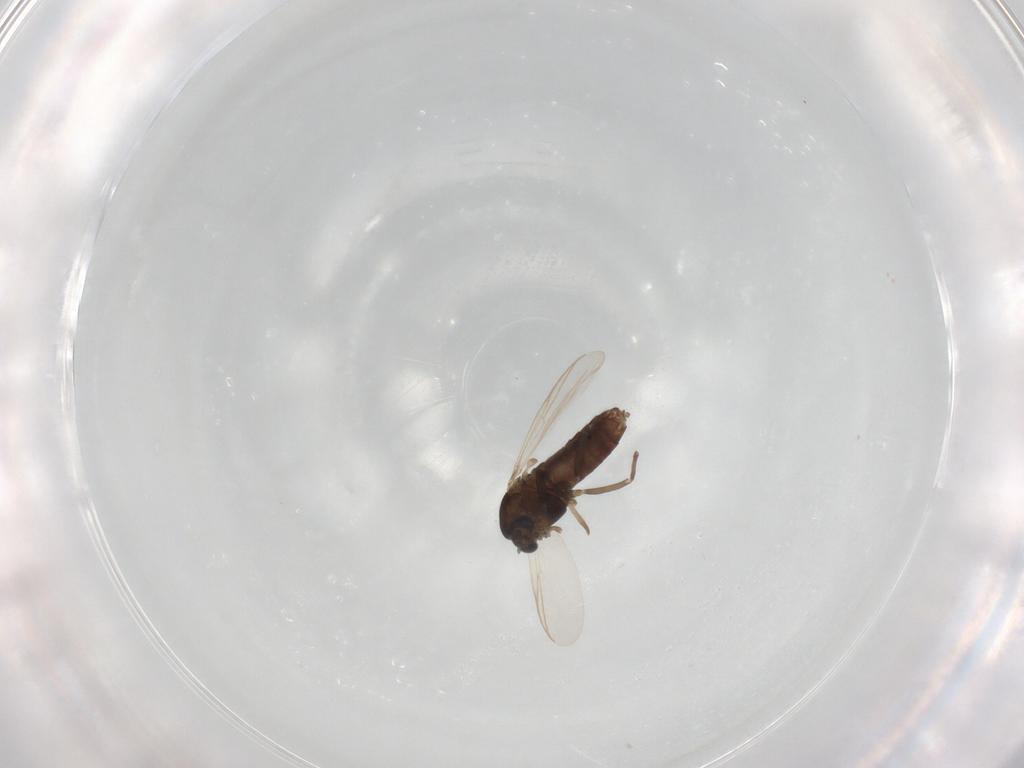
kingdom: Animalia
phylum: Arthropoda
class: Insecta
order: Diptera
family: Chironomidae
